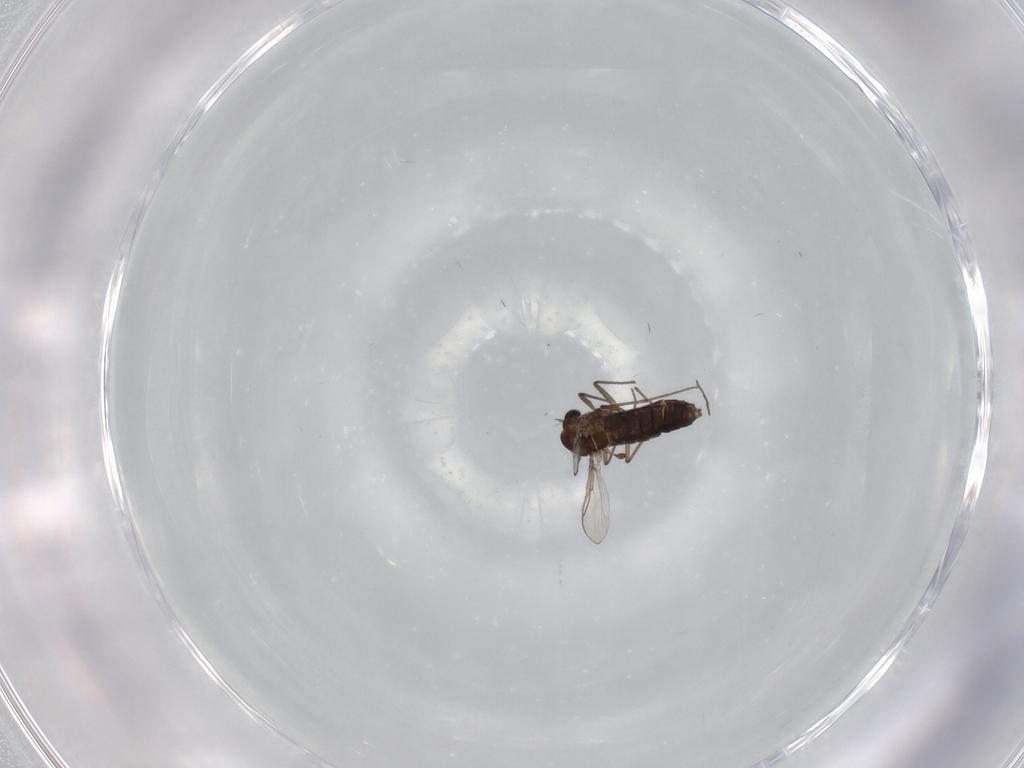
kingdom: Animalia
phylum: Arthropoda
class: Insecta
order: Diptera
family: Chironomidae
